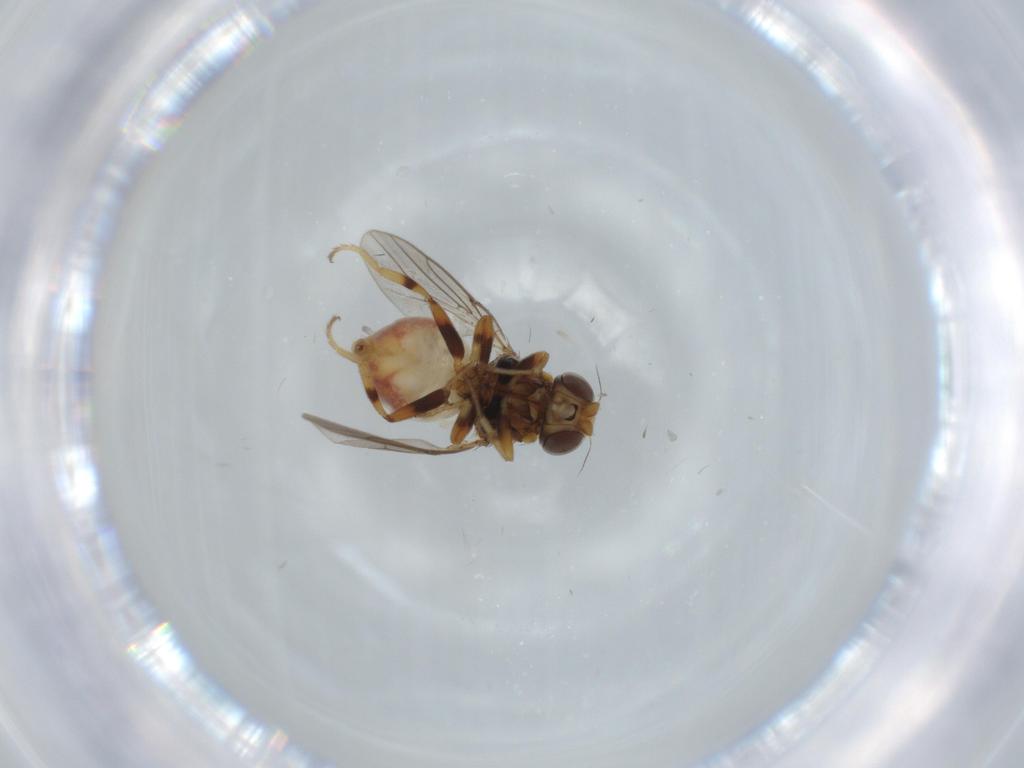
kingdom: Animalia
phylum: Arthropoda
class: Insecta
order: Diptera
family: Chloropidae
